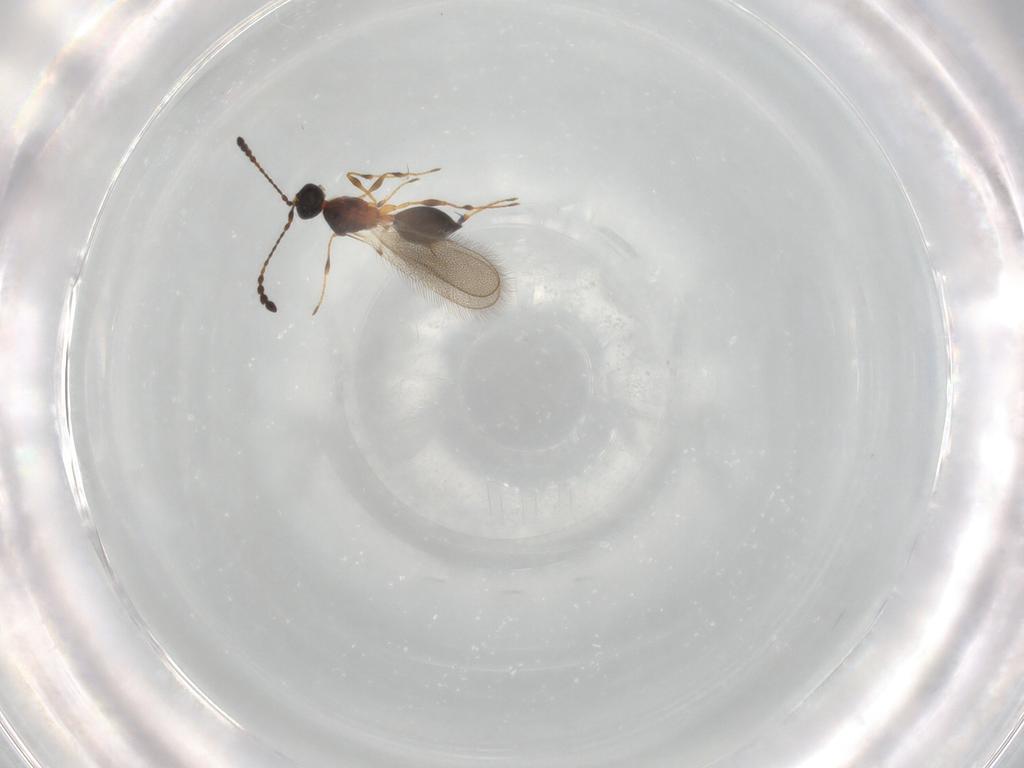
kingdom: Animalia
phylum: Arthropoda
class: Insecta
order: Hymenoptera
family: Diapriidae
